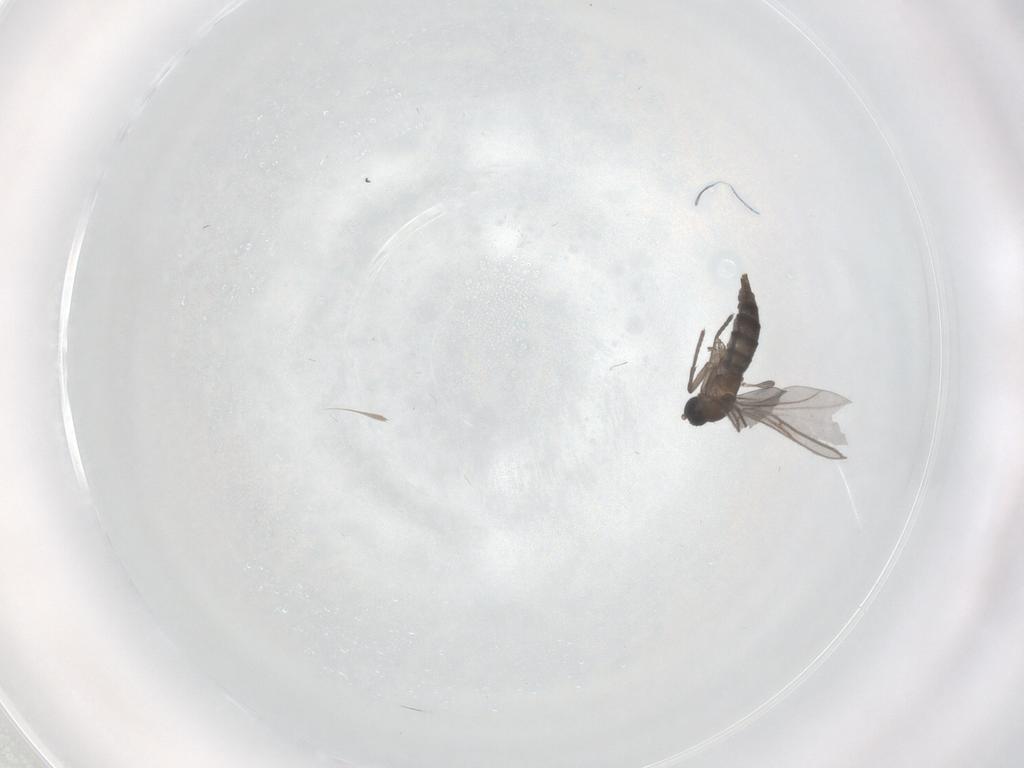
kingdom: Animalia
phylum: Arthropoda
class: Insecta
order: Diptera
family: Sciaridae
